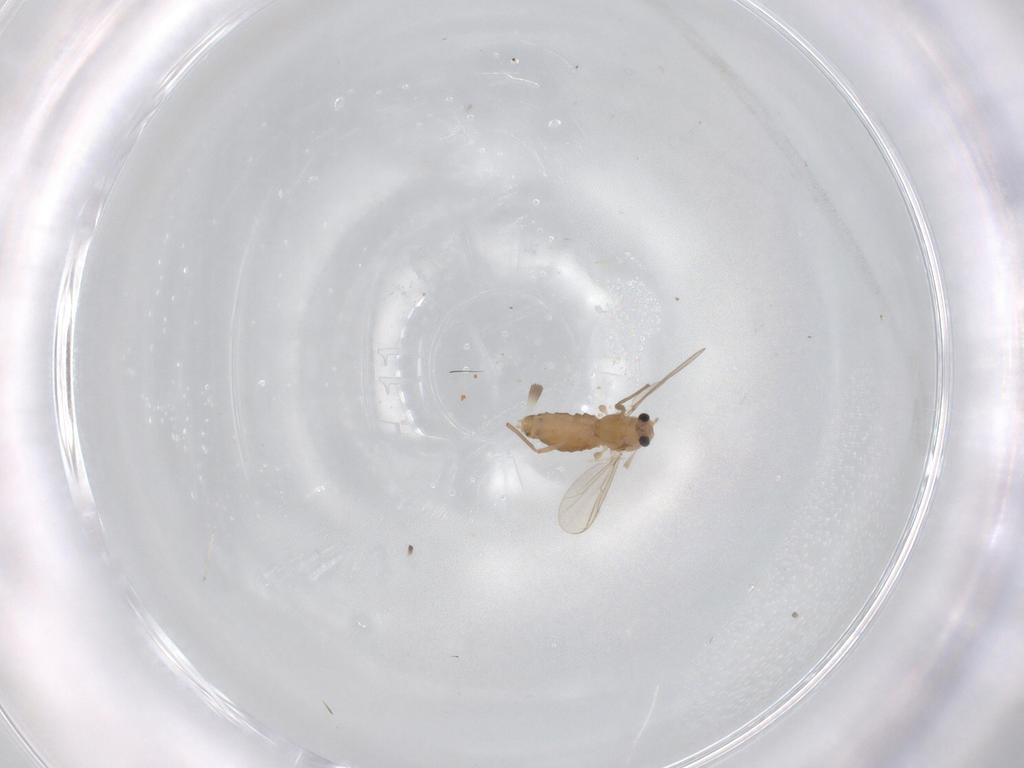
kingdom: Animalia
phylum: Arthropoda
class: Insecta
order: Diptera
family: Chironomidae
